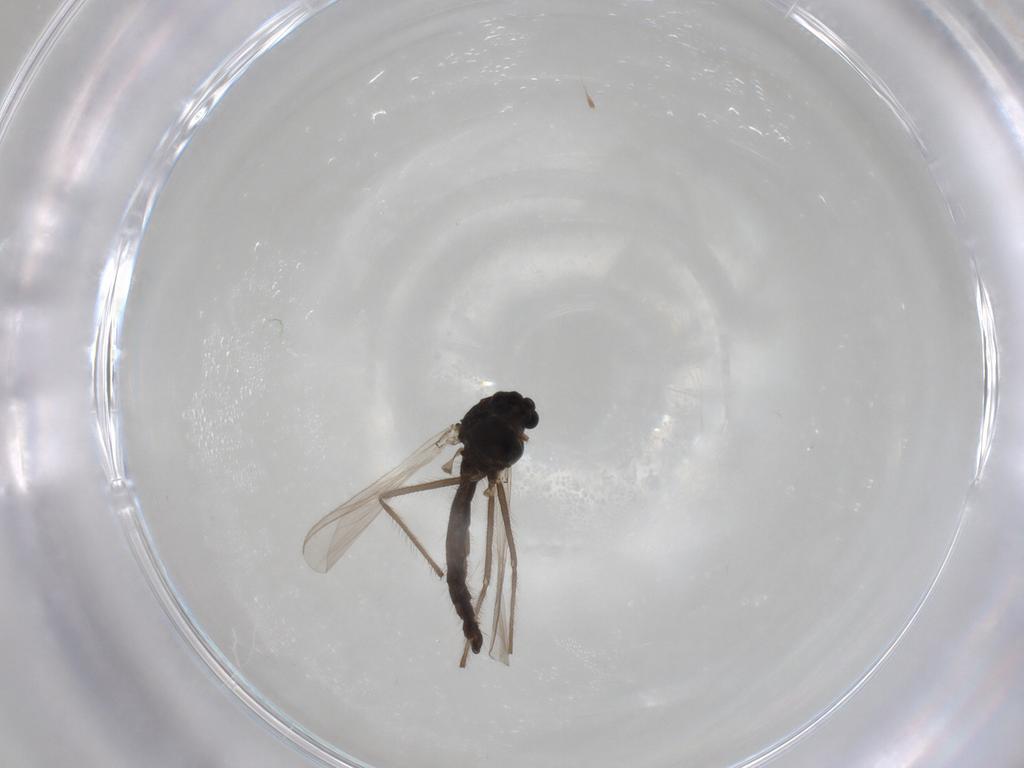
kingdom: Animalia
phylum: Arthropoda
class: Insecta
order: Diptera
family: Chironomidae
